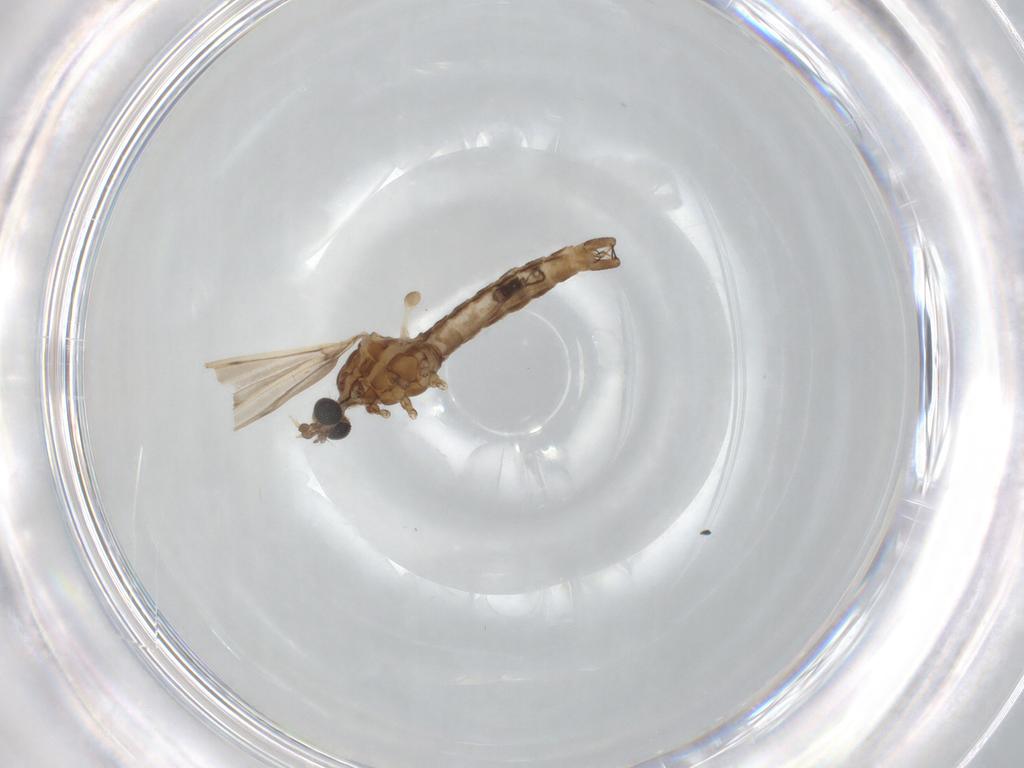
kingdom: Animalia
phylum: Arthropoda
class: Insecta
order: Diptera
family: Limoniidae
